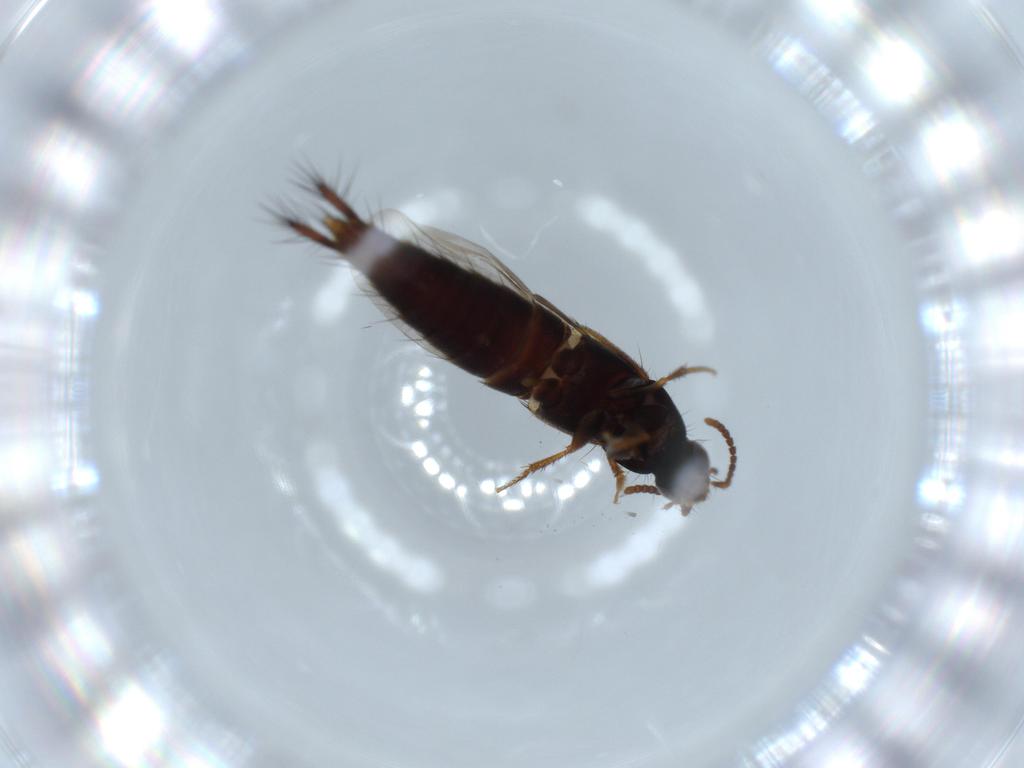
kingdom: Animalia
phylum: Arthropoda
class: Insecta
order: Coleoptera
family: Staphylinidae
